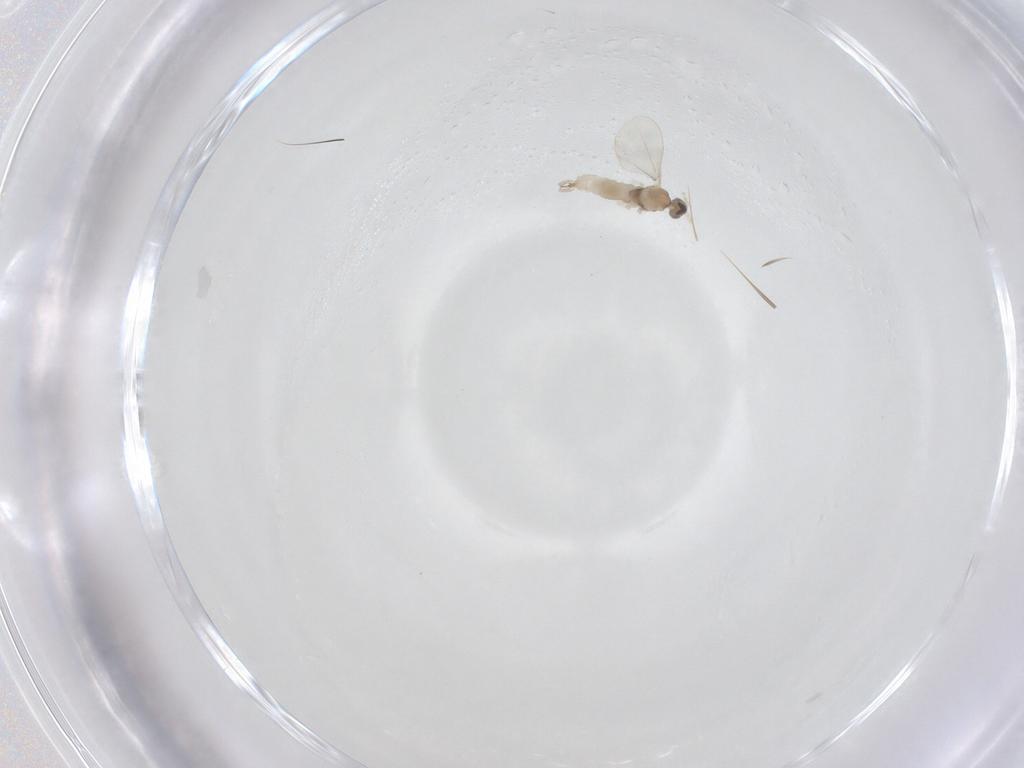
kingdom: Animalia
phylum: Arthropoda
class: Insecta
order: Diptera
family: Cecidomyiidae
